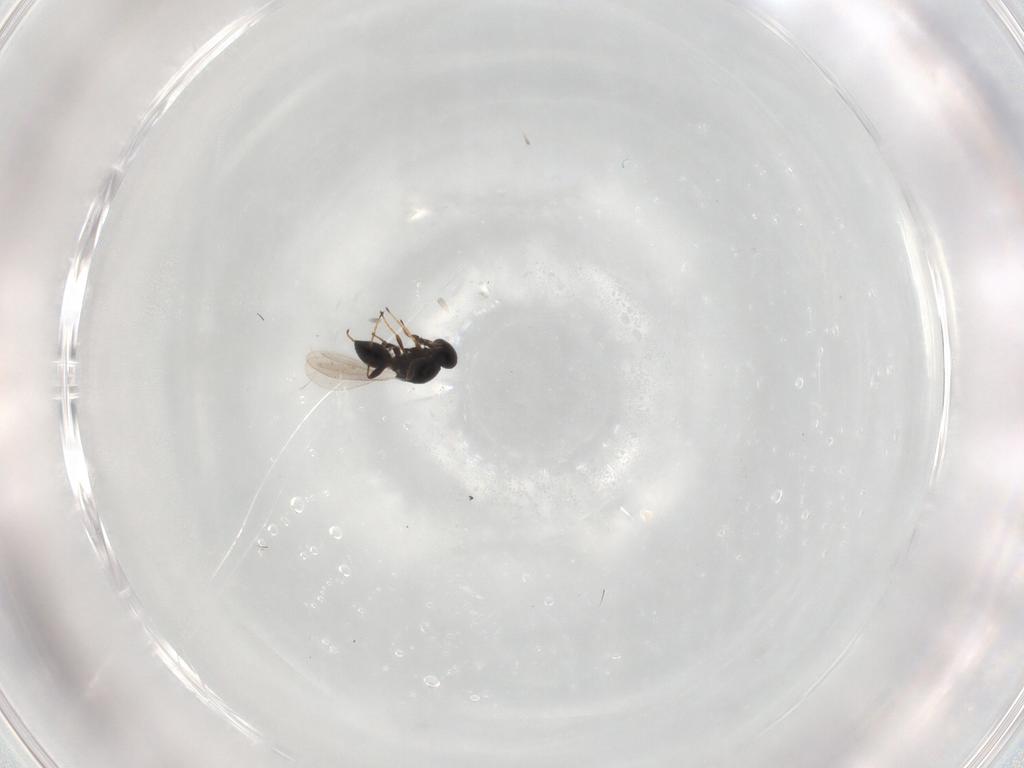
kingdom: Animalia
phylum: Arthropoda
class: Insecta
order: Hymenoptera
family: Platygastridae
